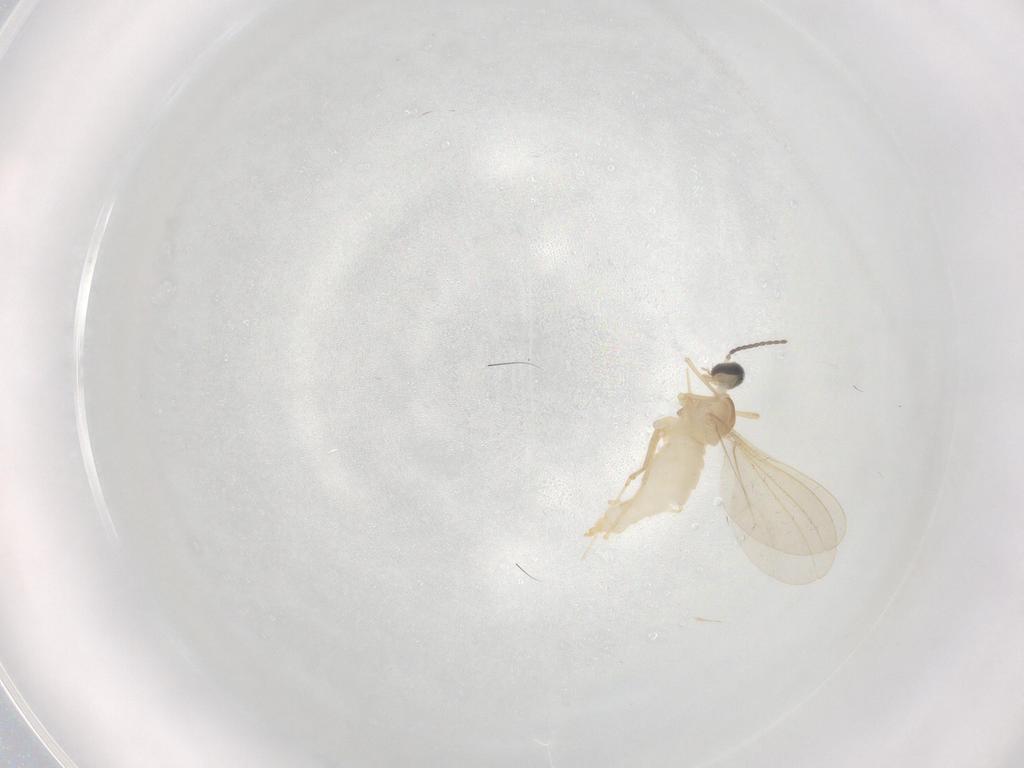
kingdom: Animalia
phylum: Arthropoda
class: Insecta
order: Diptera
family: Cecidomyiidae
